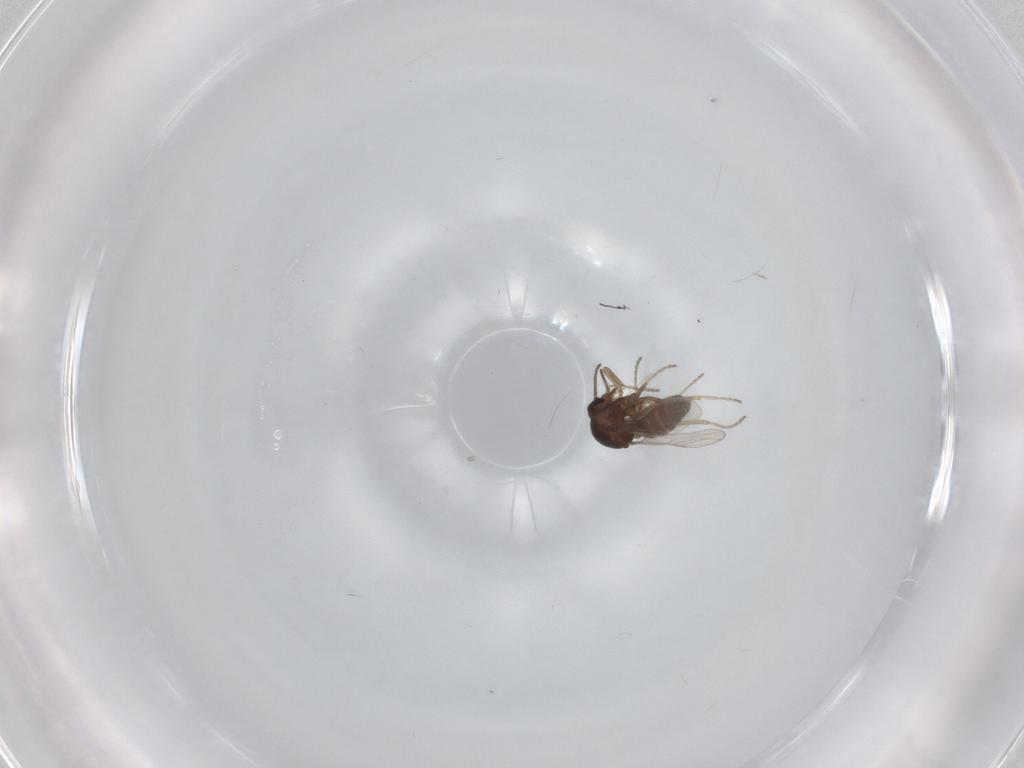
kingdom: Animalia
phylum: Arthropoda
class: Insecta
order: Diptera
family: Ceratopogonidae
